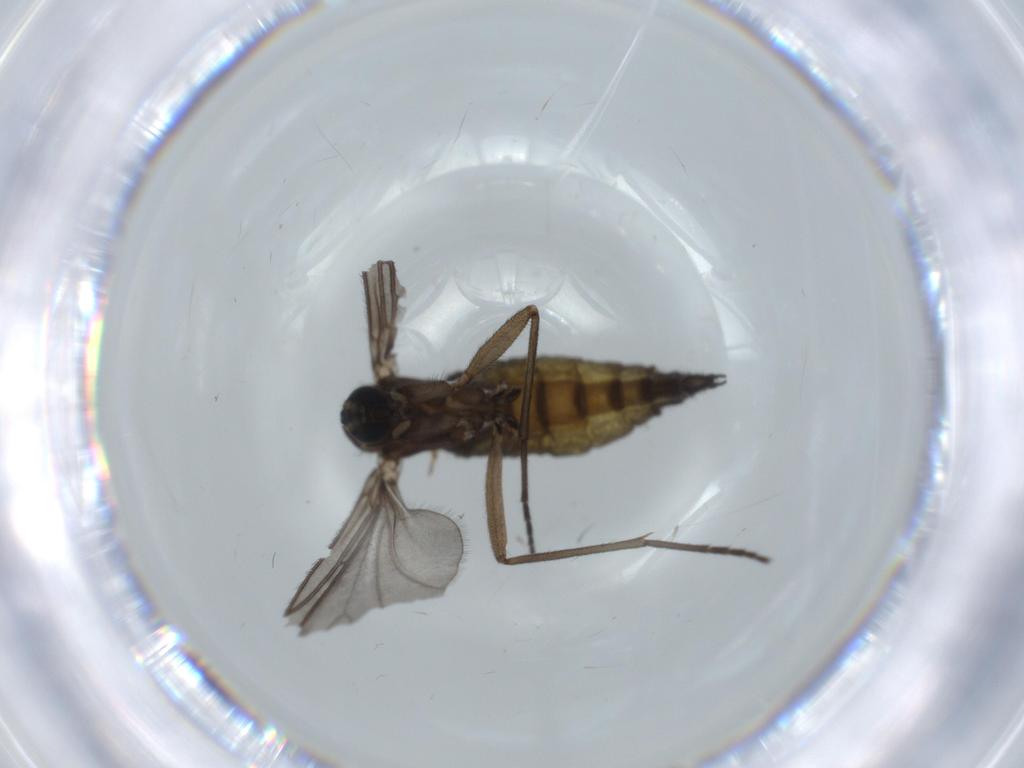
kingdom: Animalia
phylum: Arthropoda
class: Insecta
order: Diptera
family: Sciaridae
